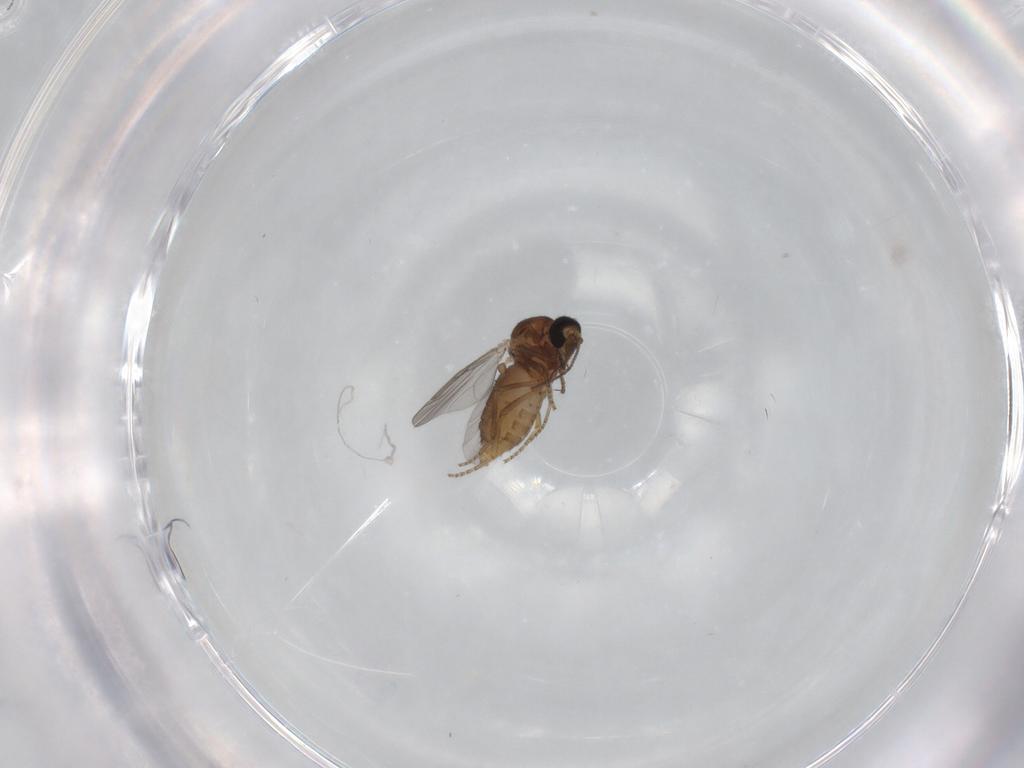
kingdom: Animalia
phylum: Arthropoda
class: Insecta
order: Diptera
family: Ceratopogonidae
